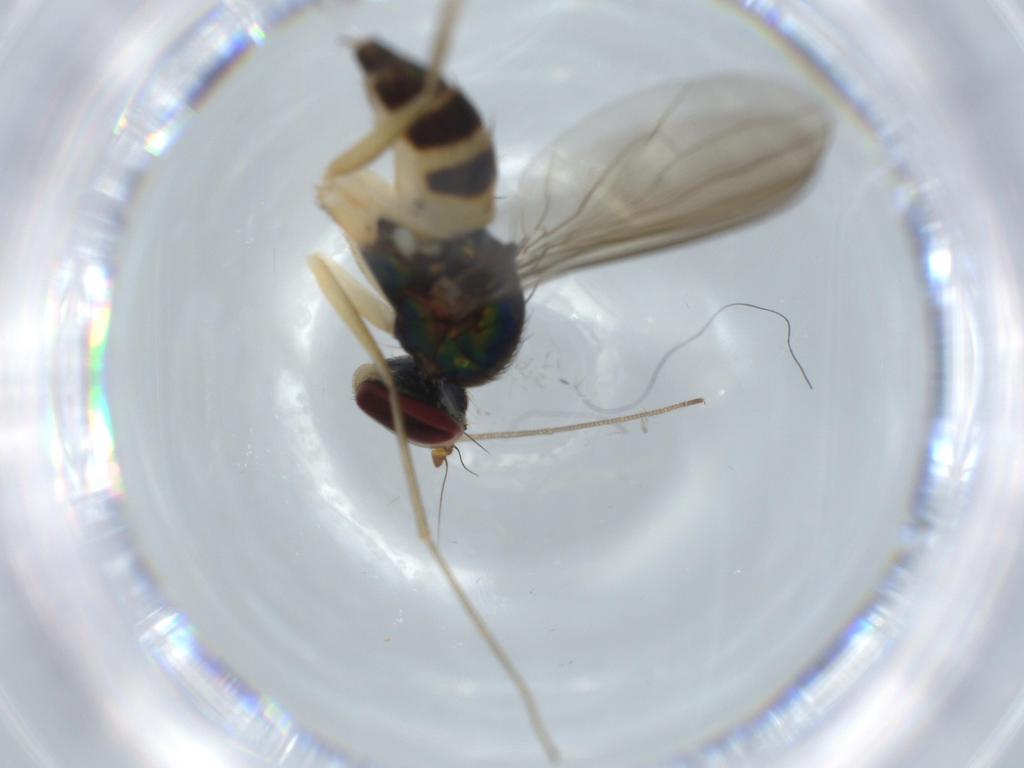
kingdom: Animalia
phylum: Arthropoda
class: Insecta
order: Diptera
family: Dolichopodidae
